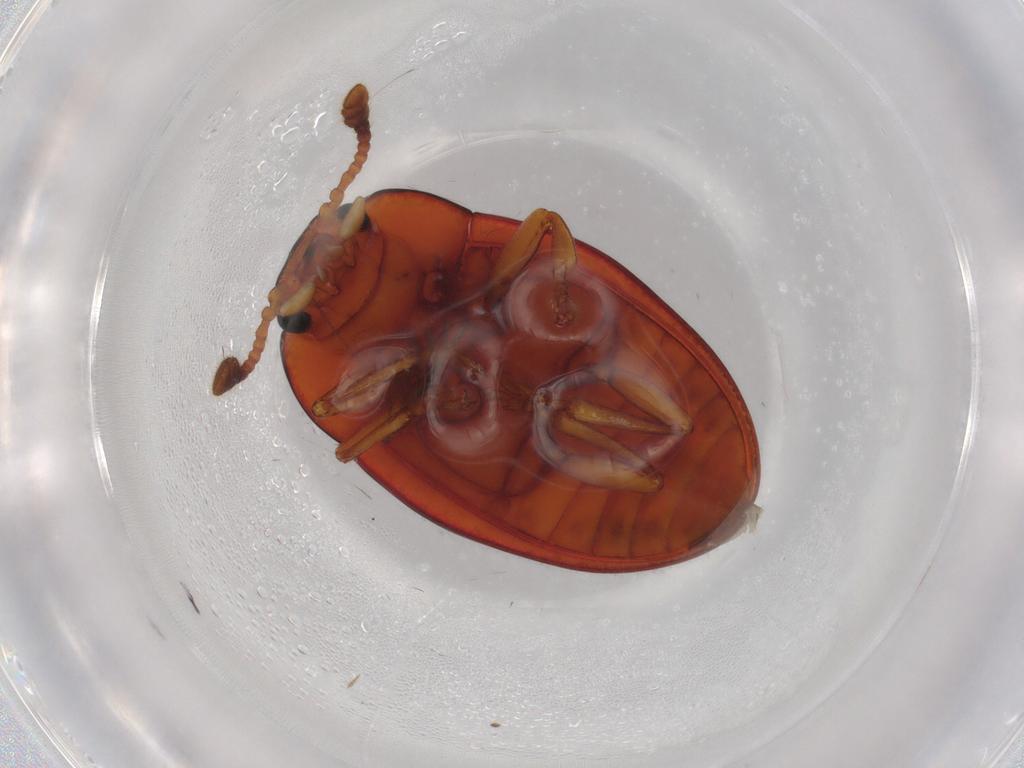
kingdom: Animalia
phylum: Arthropoda
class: Insecta
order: Coleoptera
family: Erotylidae
